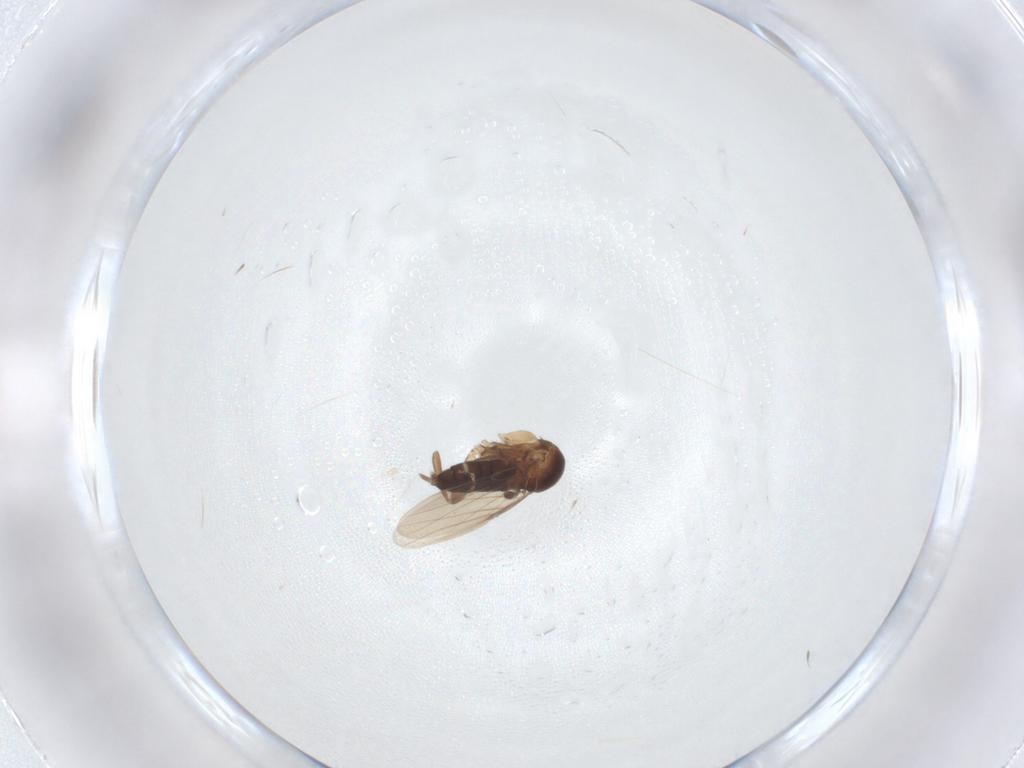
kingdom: Animalia
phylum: Arthropoda
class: Insecta
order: Diptera
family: Phoridae
